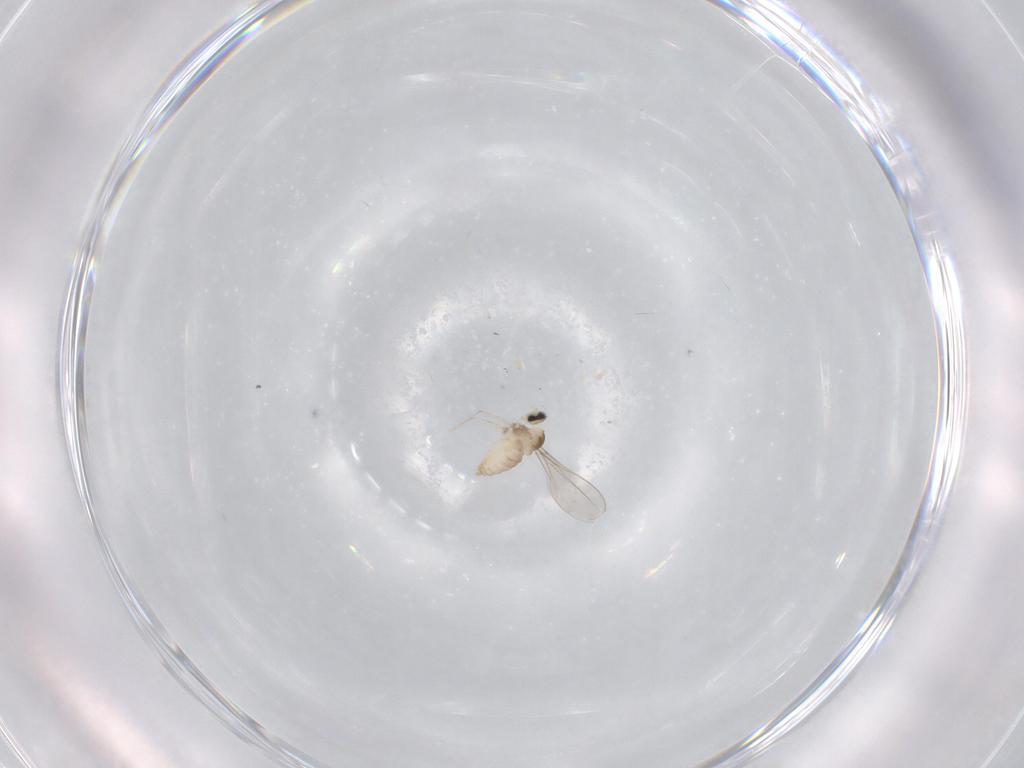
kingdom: Animalia
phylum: Arthropoda
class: Insecta
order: Diptera
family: Cecidomyiidae
